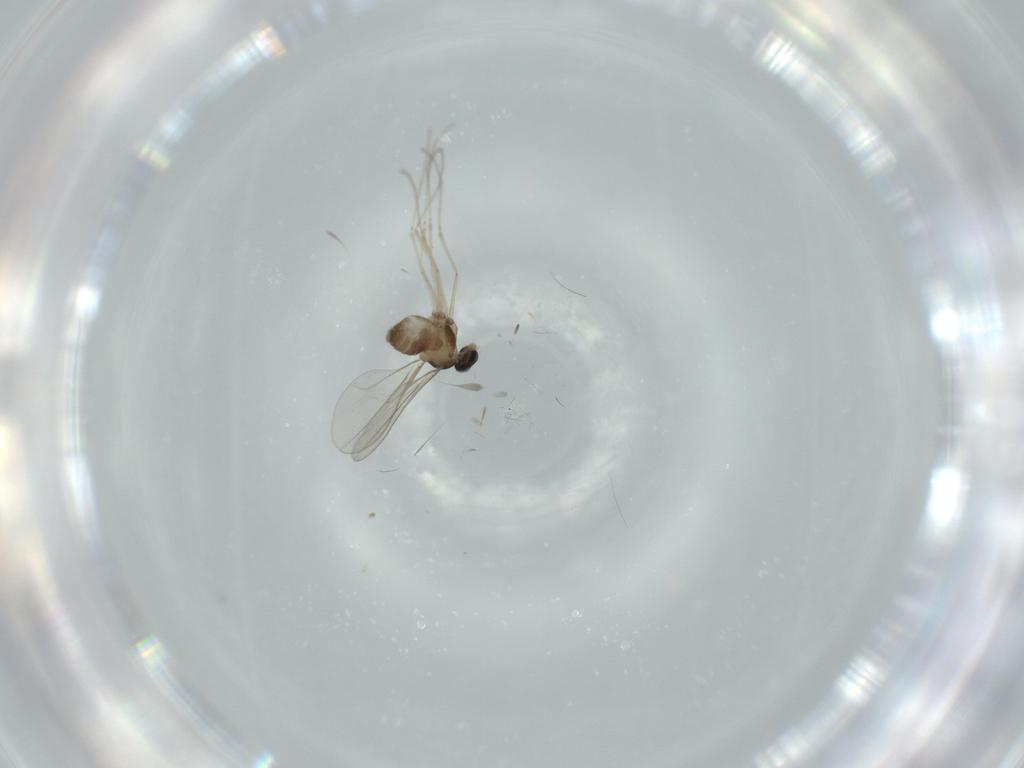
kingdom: Animalia
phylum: Arthropoda
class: Insecta
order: Diptera
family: Cecidomyiidae
